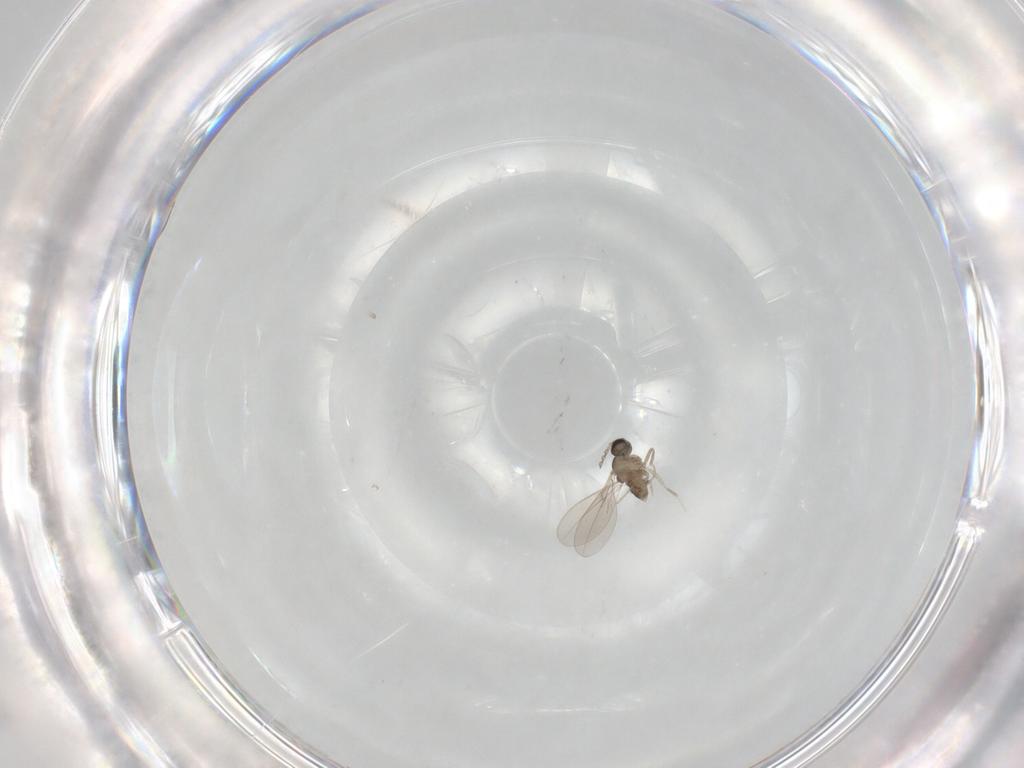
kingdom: Animalia
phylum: Arthropoda
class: Insecta
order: Diptera
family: Cecidomyiidae
